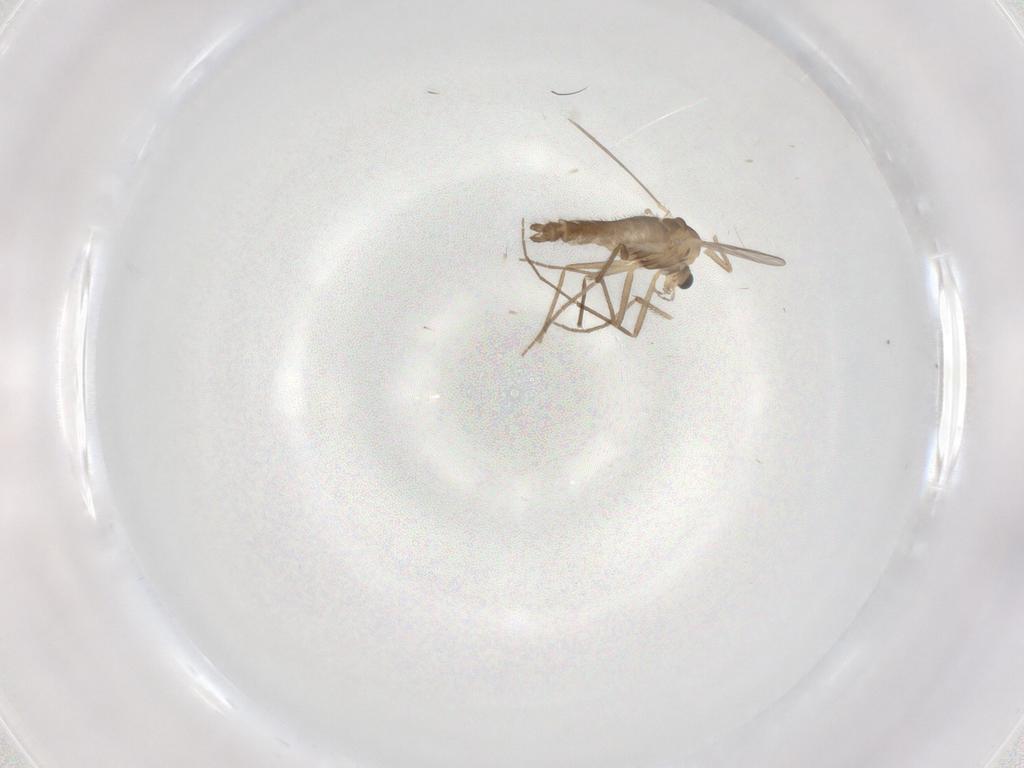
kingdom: Animalia
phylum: Arthropoda
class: Insecta
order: Diptera
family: Chironomidae
